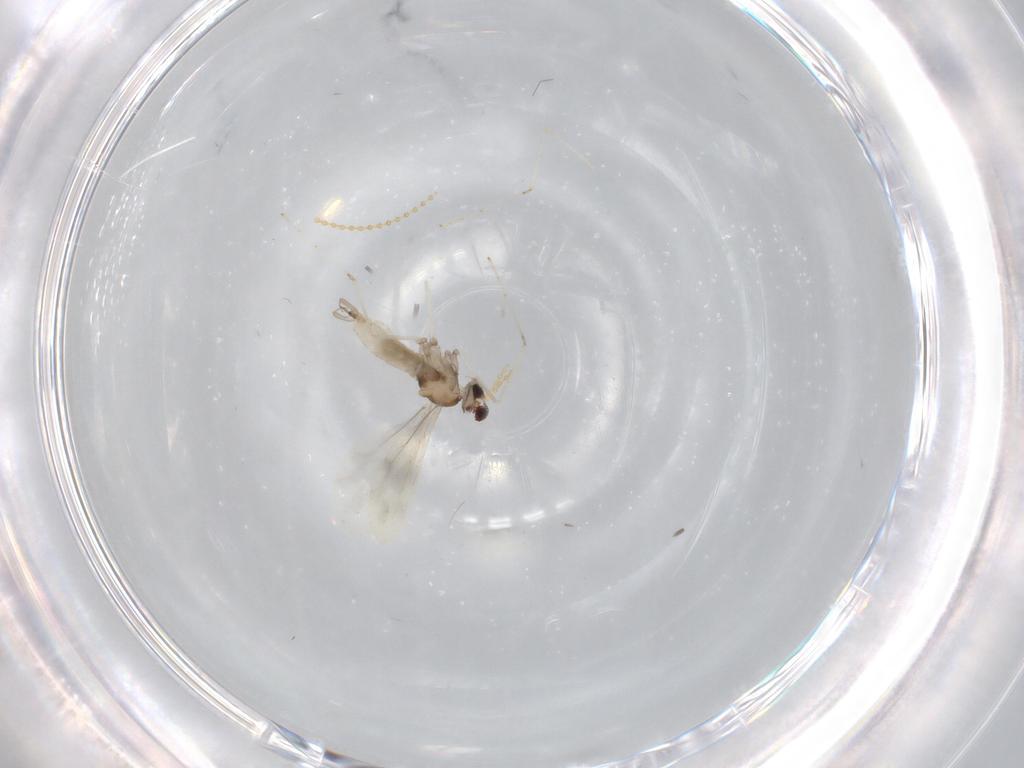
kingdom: Animalia
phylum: Arthropoda
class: Insecta
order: Diptera
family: Cecidomyiidae
